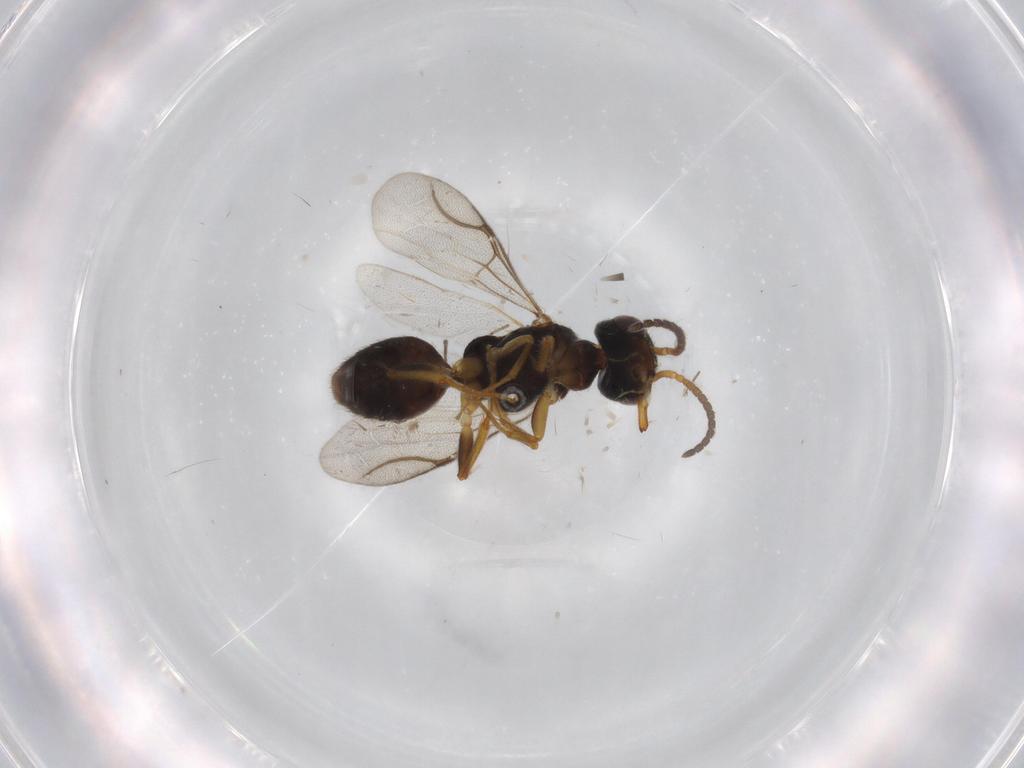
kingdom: Animalia
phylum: Arthropoda
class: Insecta
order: Hymenoptera
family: Bethylidae
